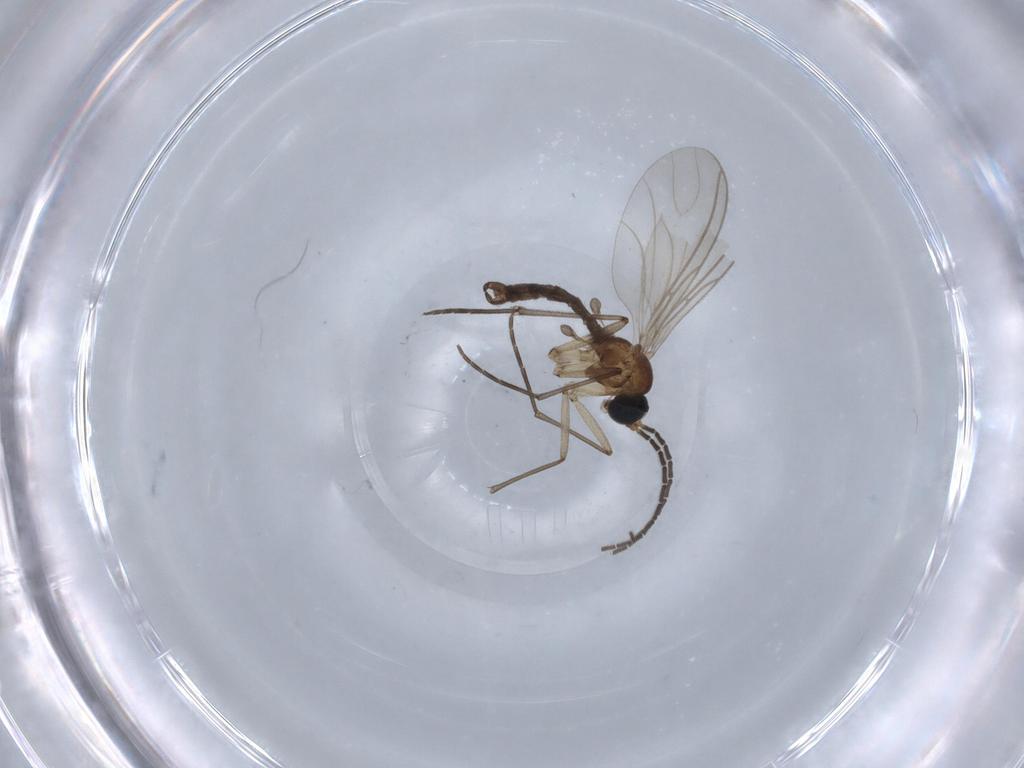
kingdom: Animalia
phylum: Arthropoda
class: Insecta
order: Diptera
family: Sciaridae
